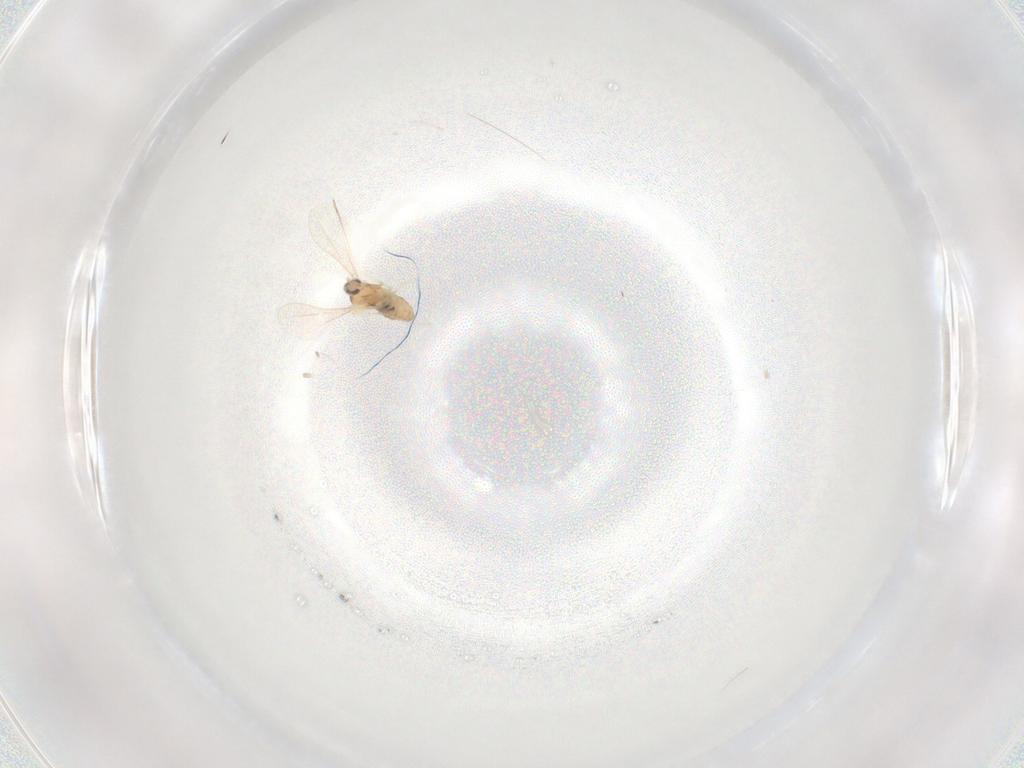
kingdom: Animalia
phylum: Arthropoda
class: Insecta
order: Diptera
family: Cecidomyiidae
